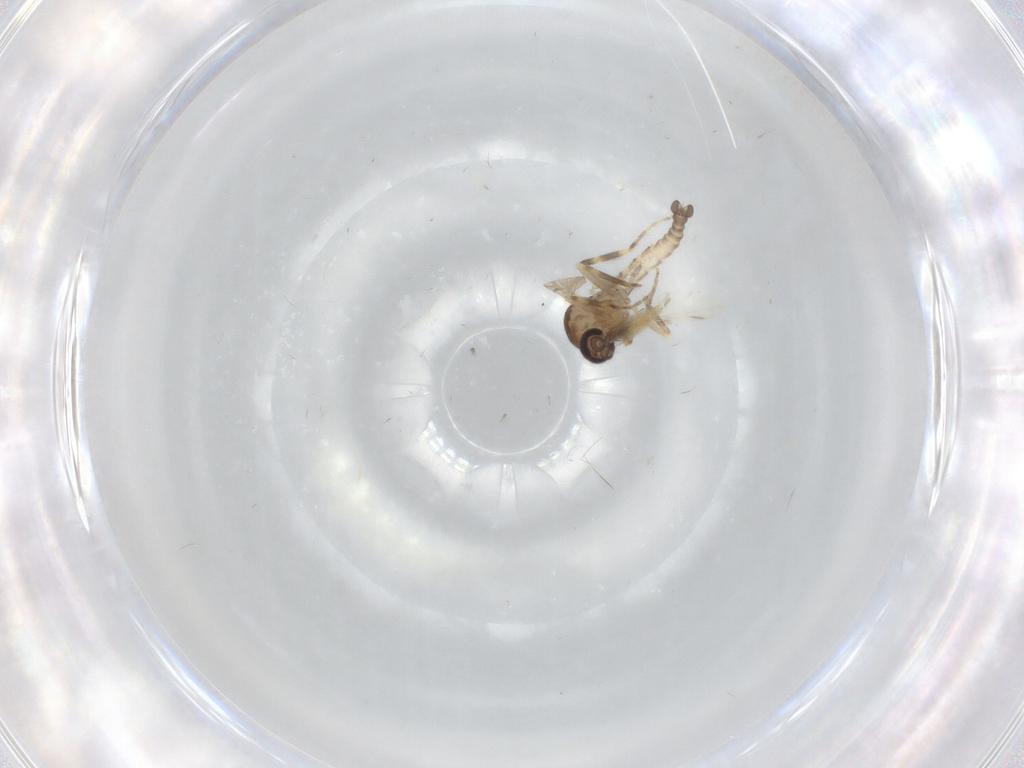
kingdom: Animalia
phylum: Arthropoda
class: Insecta
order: Diptera
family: Ceratopogonidae
